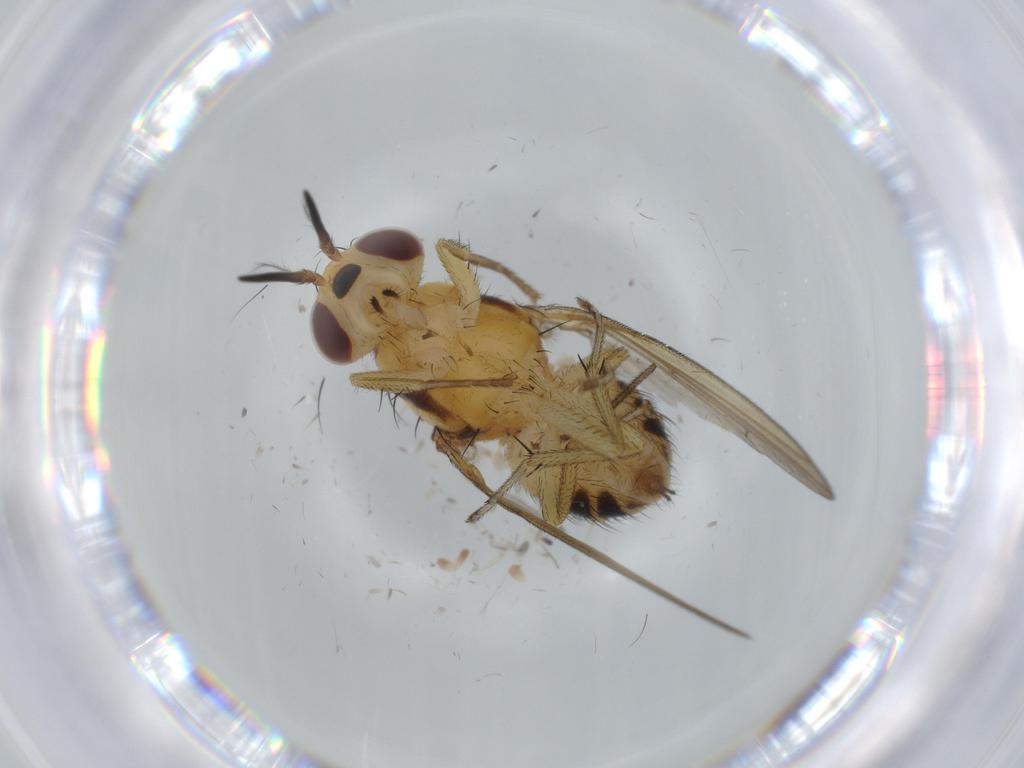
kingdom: Animalia
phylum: Arthropoda
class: Insecta
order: Diptera
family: Lauxaniidae
